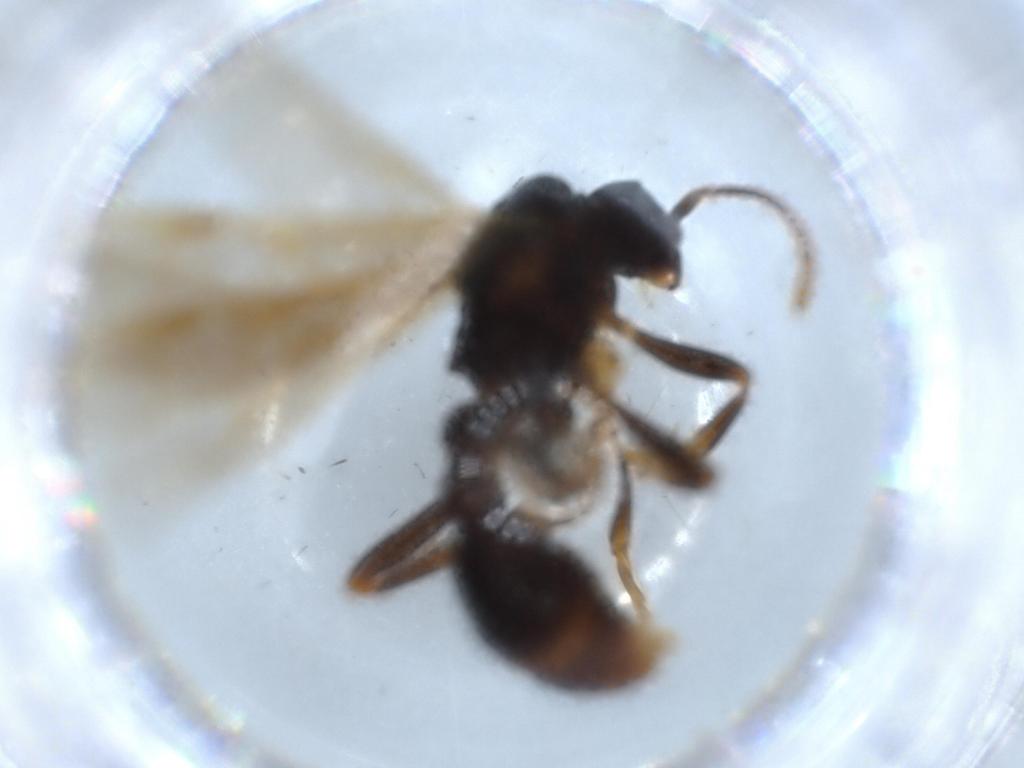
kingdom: Animalia
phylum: Arthropoda
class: Insecta
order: Hymenoptera
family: Formicidae
